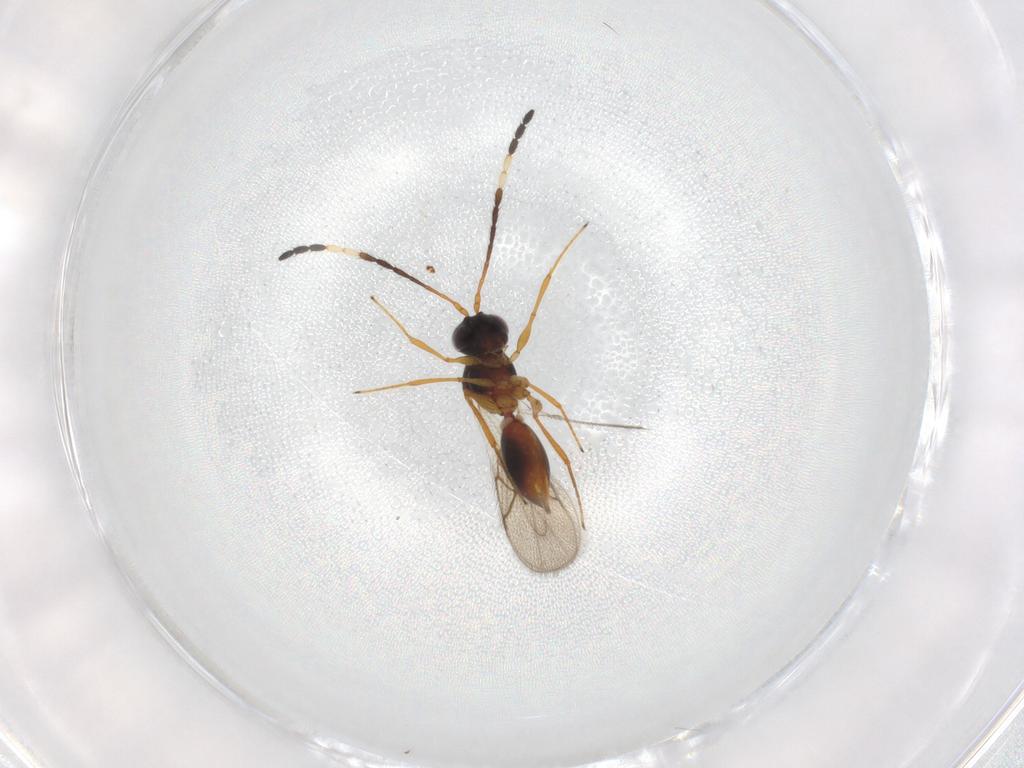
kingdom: Animalia
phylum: Arthropoda
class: Insecta
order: Hymenoptera
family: Figitidae
